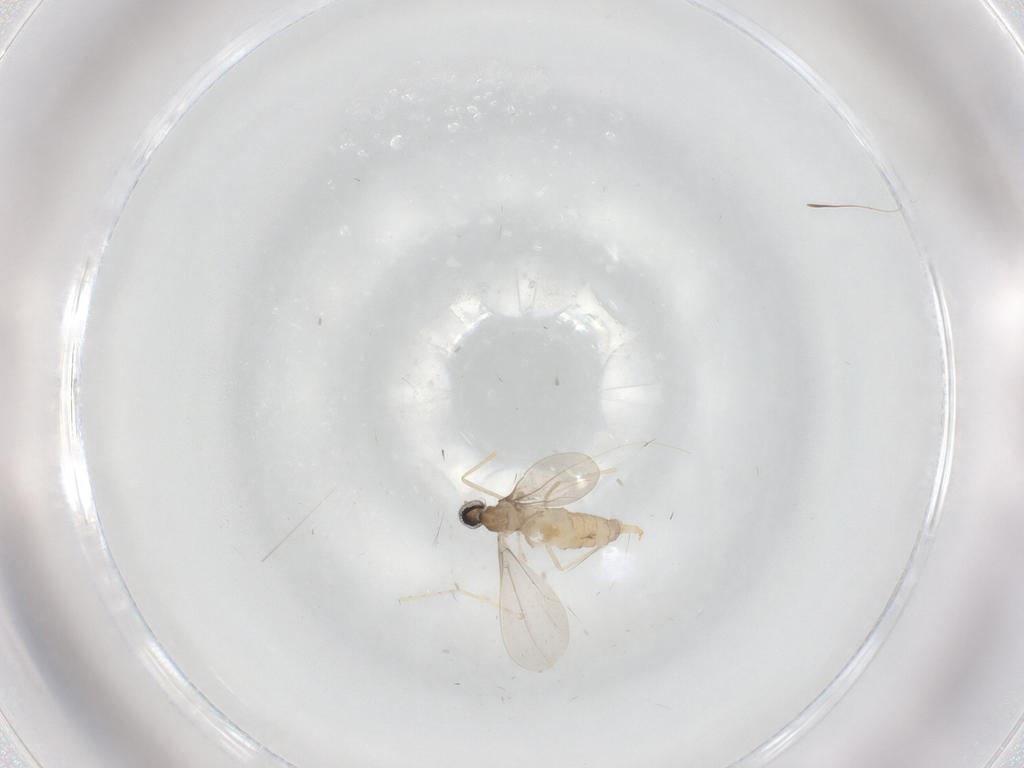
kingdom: Animalia
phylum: Arthropoda
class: Insecta
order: Diptera
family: Cecidomyiidae
